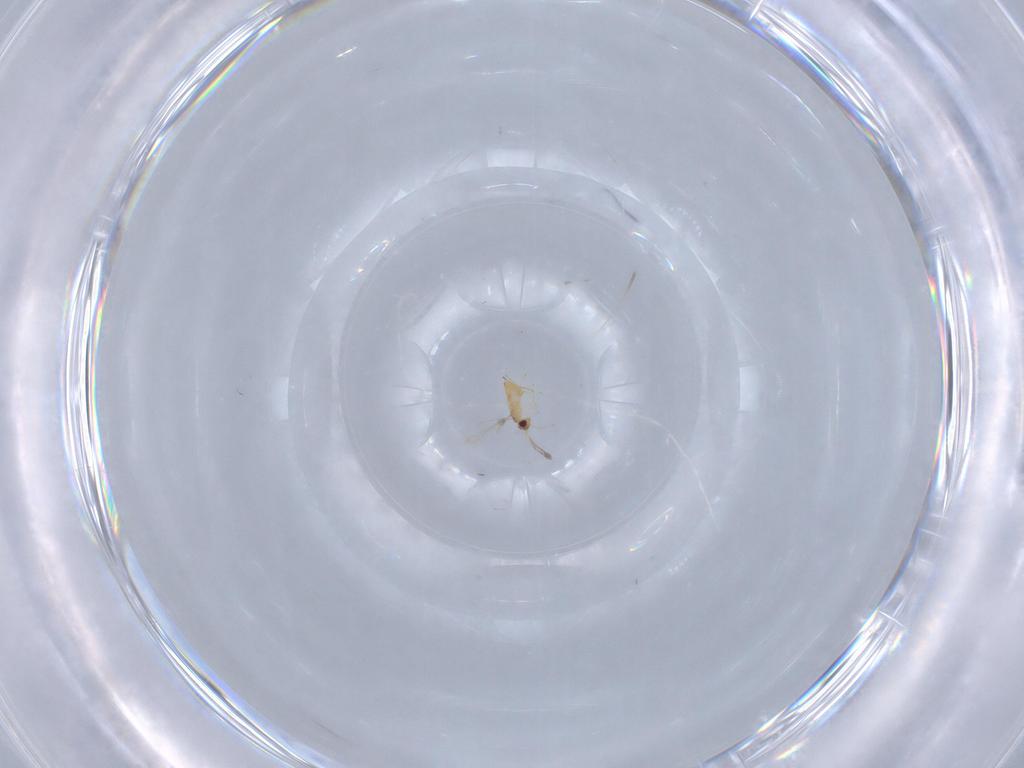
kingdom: Animalia
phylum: Arthropoda
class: Insecta
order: Hymenoptera
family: Mymaridae
